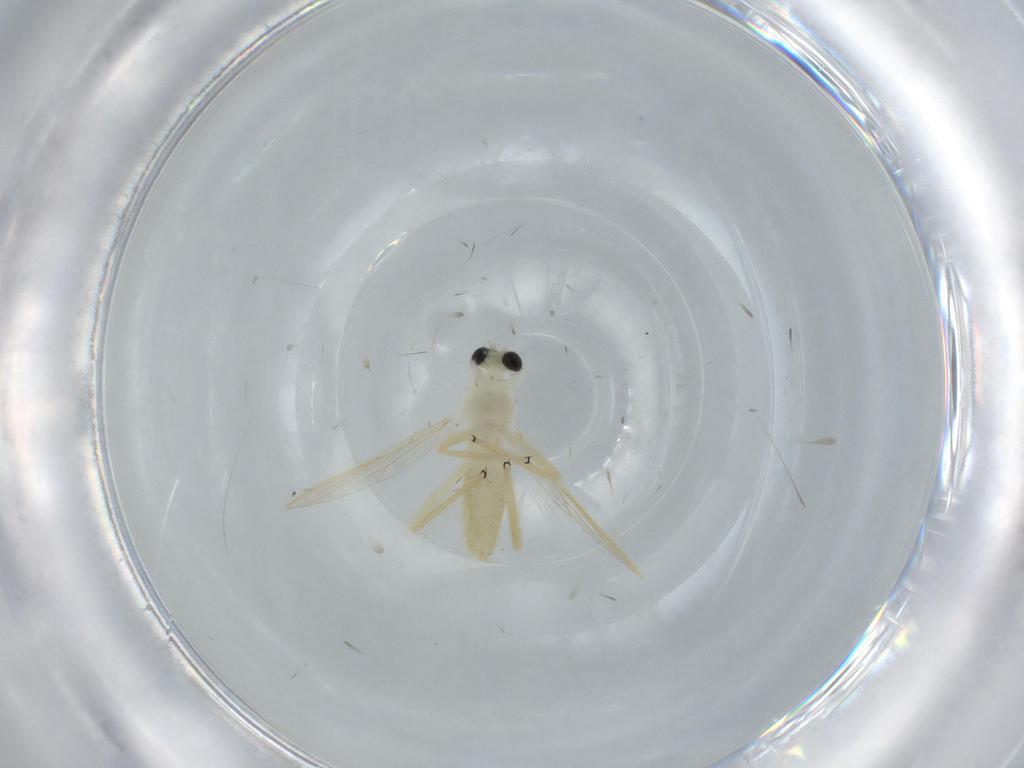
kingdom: Animalia
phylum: Arthropoda
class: Insecta
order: Diptera
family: Chironomidae
